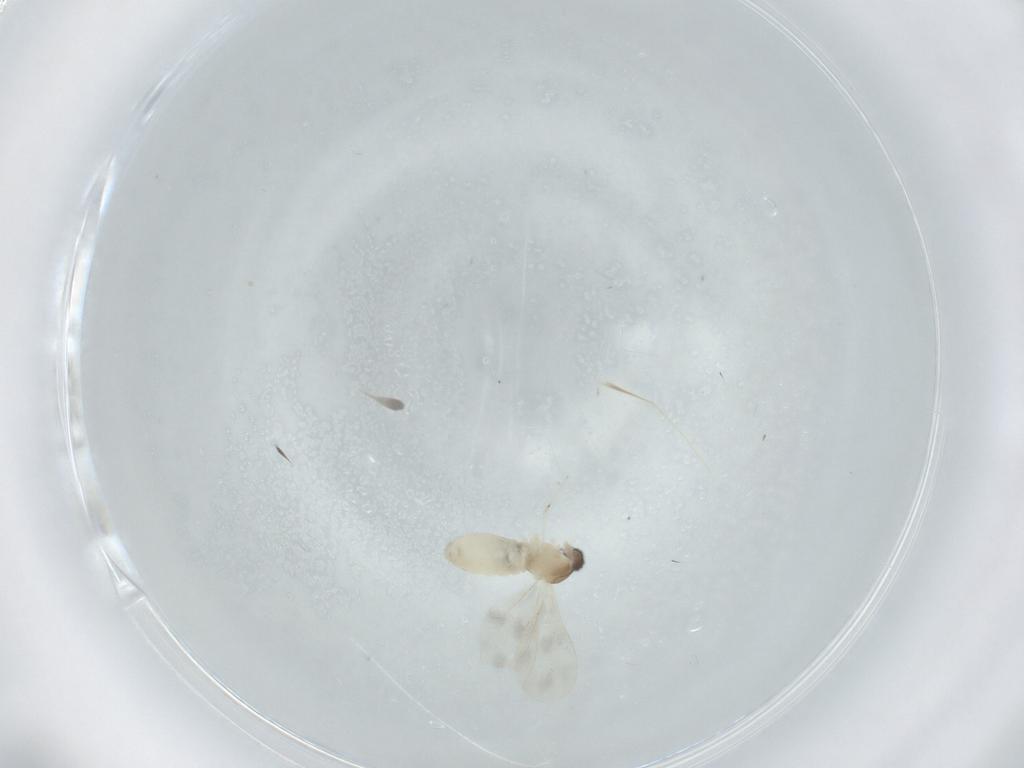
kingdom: Animalia
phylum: Arthropoda
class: Insecta
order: Diptera
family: Cecidomyiidae
